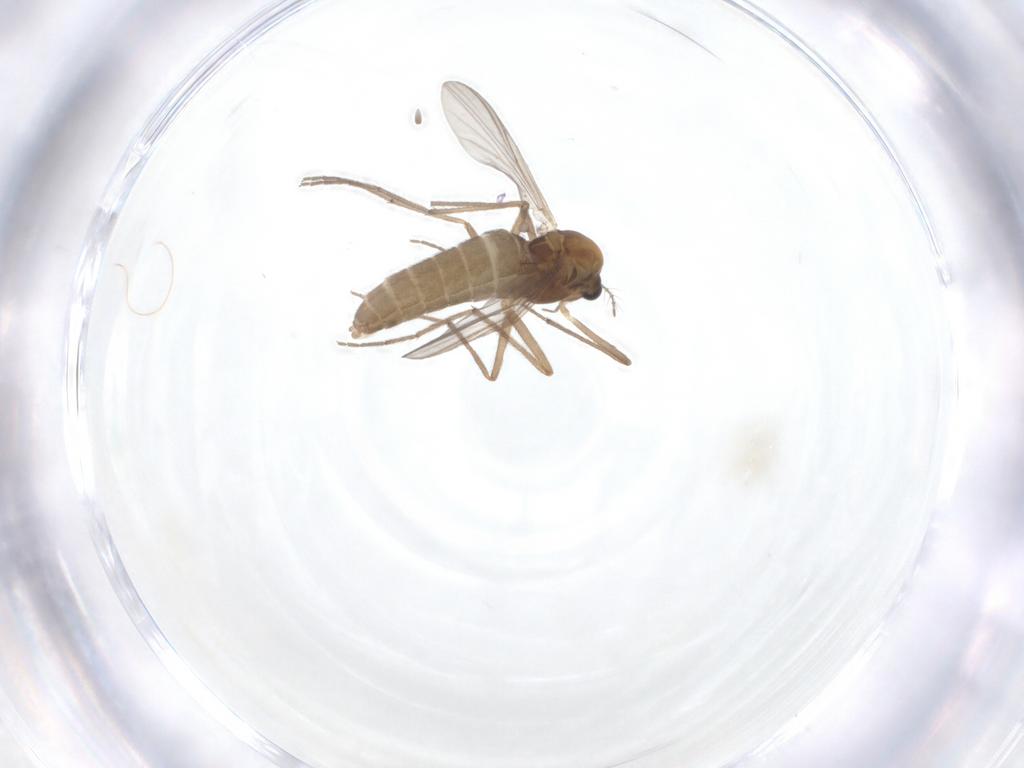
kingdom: Animalia
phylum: Arthropoda
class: Insecta
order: Diptera
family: Chironomidae
